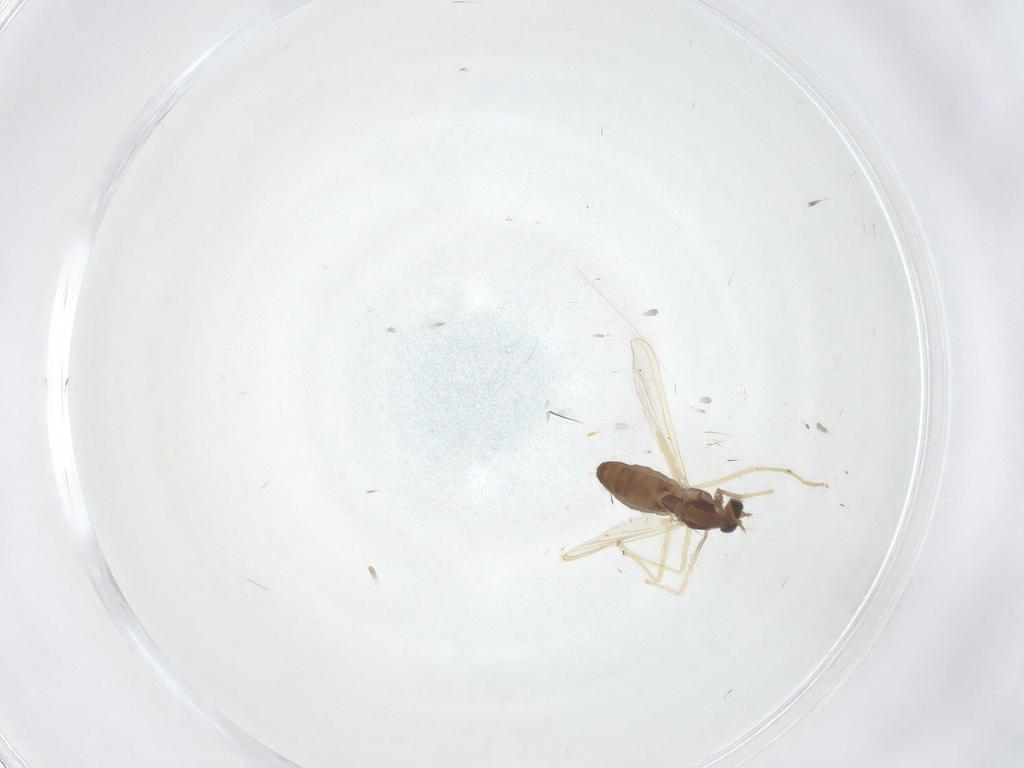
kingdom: Animalia
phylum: Arthropoda
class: Insecta
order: Diptera
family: Chironomidae
